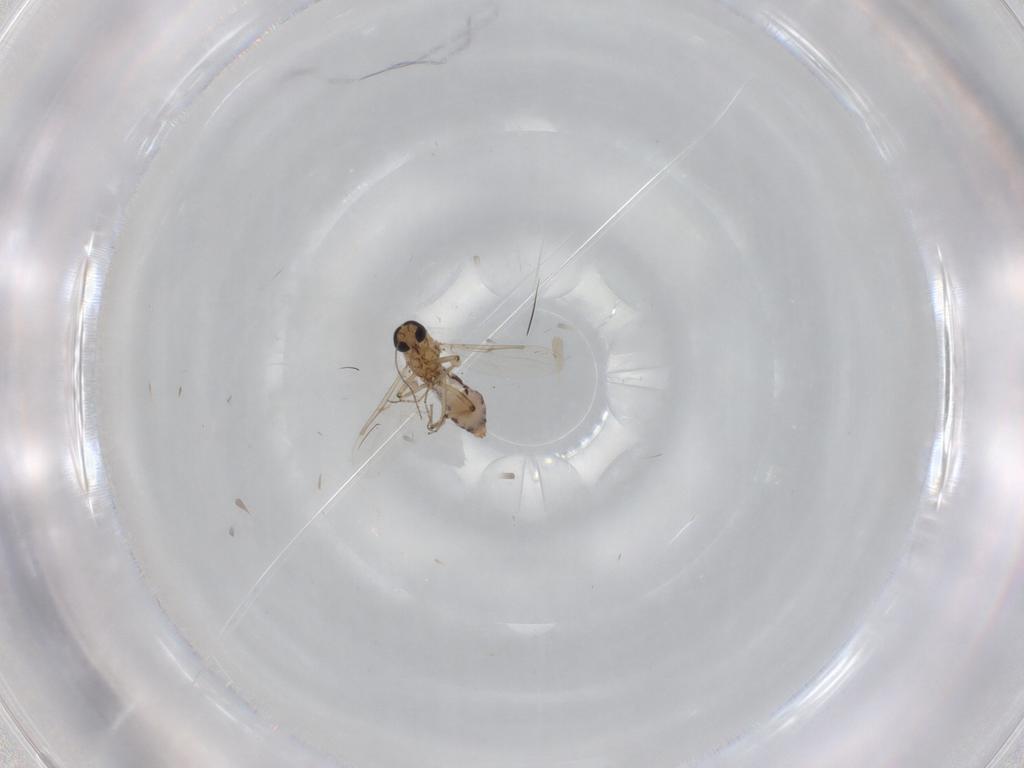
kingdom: Animalia
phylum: Arthropoda
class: Insecta
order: Diptera
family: Ceratopogonidae
